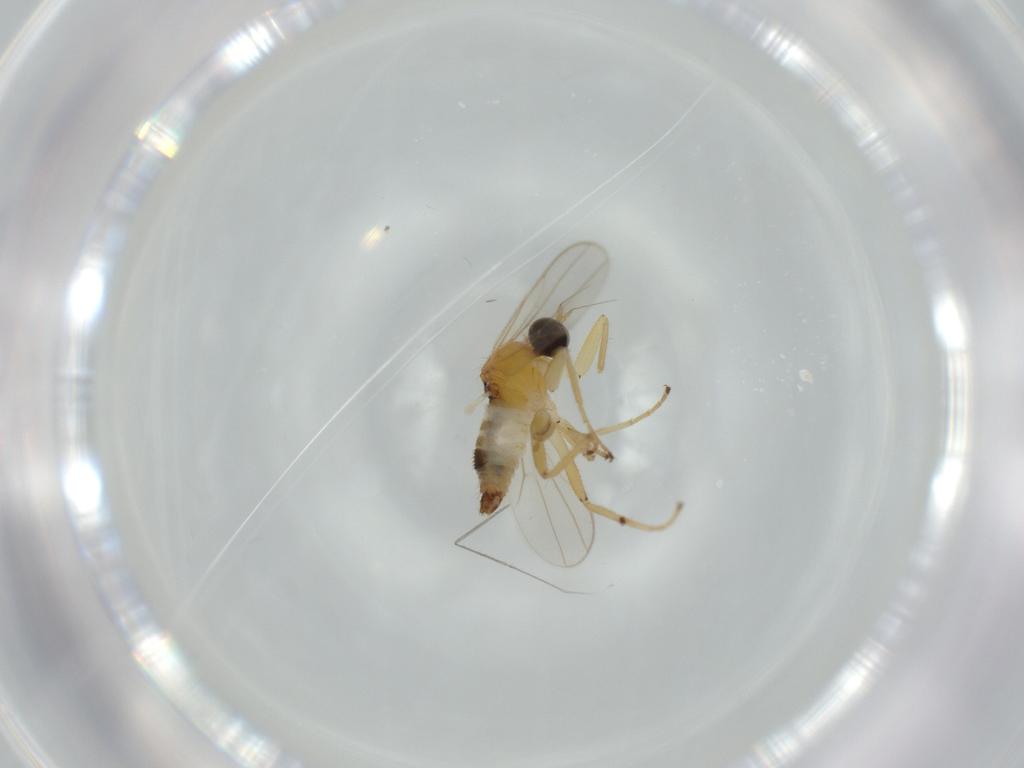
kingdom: Animalia
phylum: Arthropoda
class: Insecta
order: Diptera
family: Hybotidae
